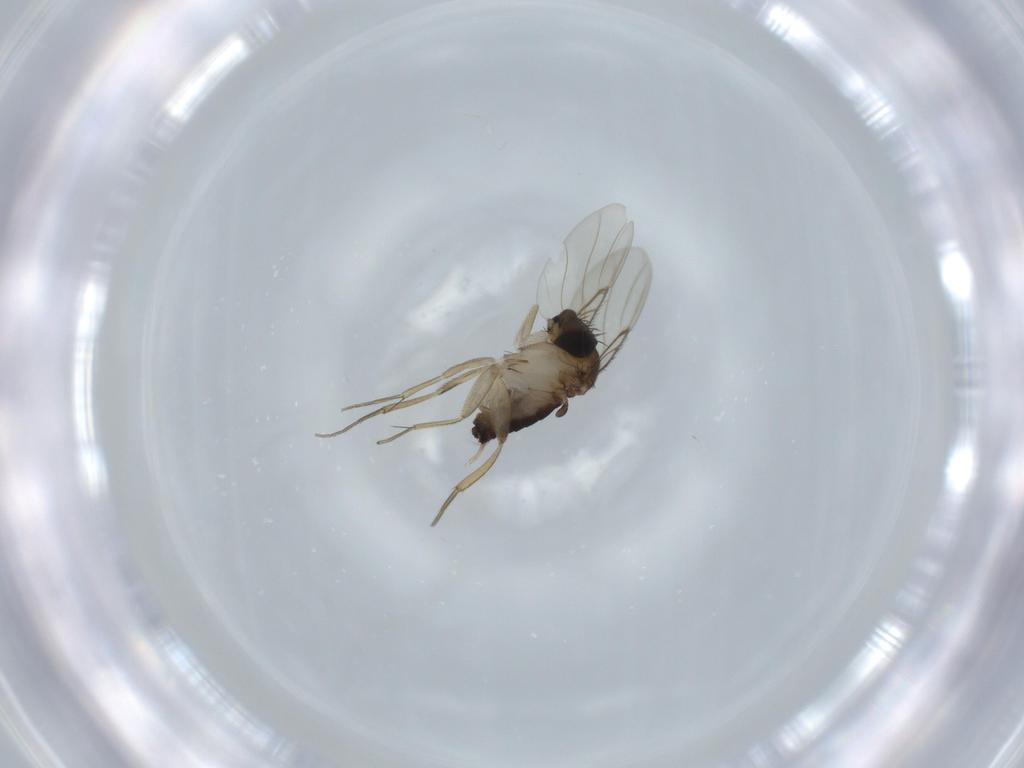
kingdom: Animalia
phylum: Arthropoda
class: Insecta
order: Diptera
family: Phoridae
